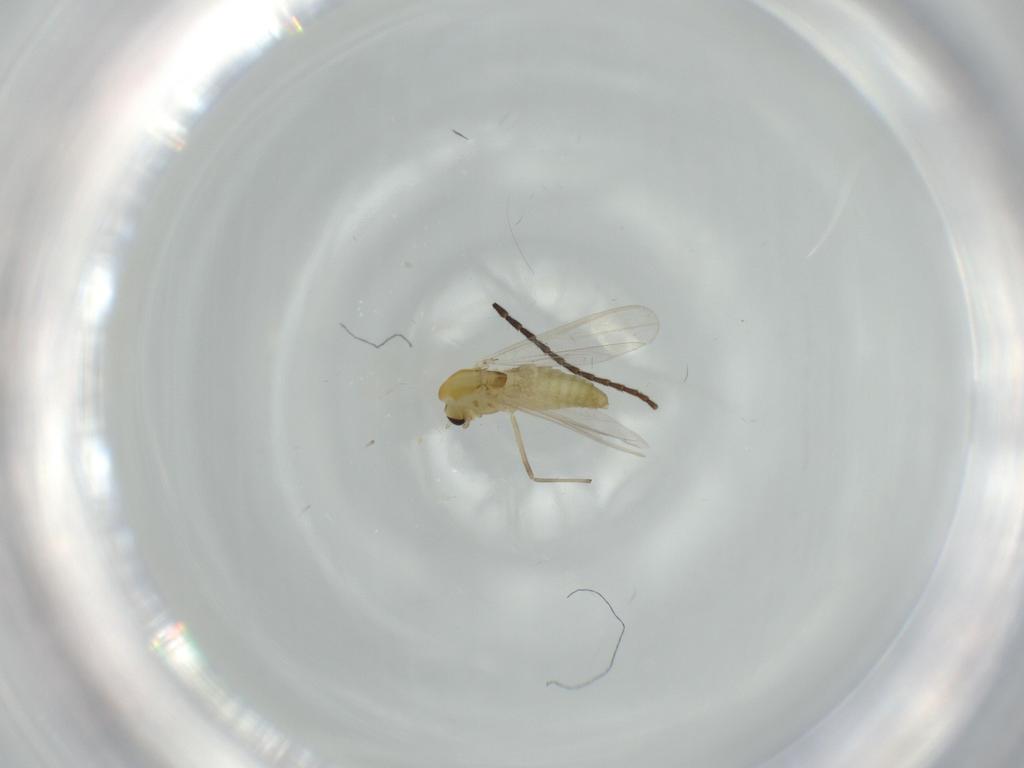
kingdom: Animalia
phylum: Arthropoda
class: Insecta
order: Diptera
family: Chironomidae
